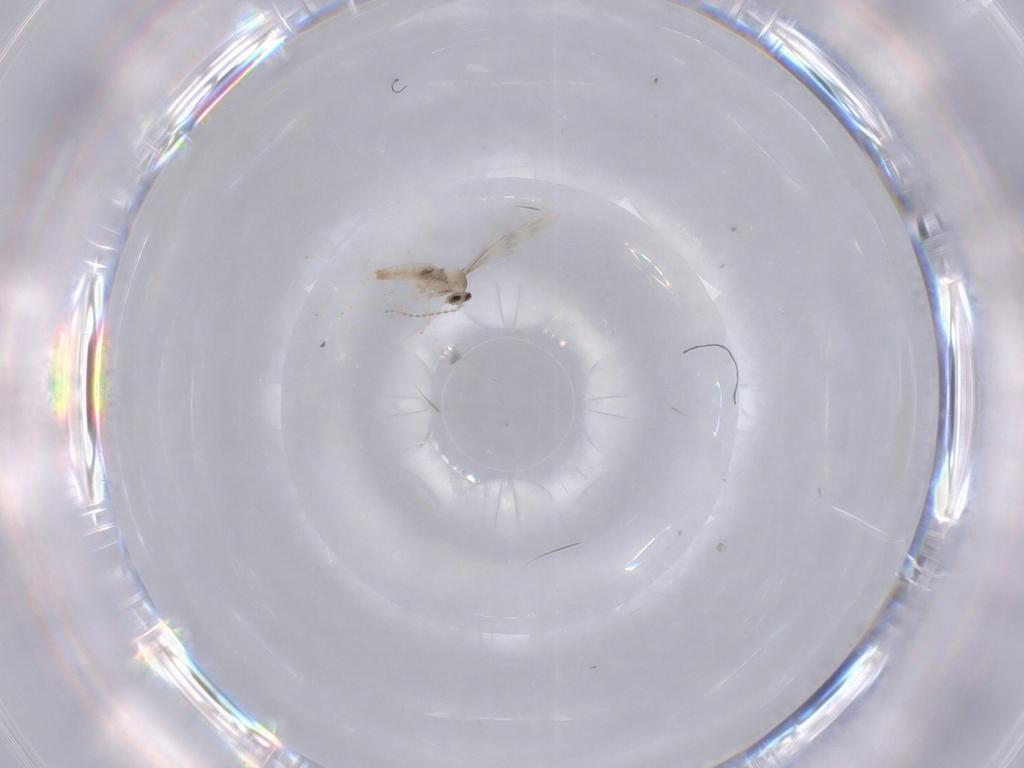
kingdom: Animalia
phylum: Arthropoda
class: Insecta
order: Diptera
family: Cecidomyiidae
